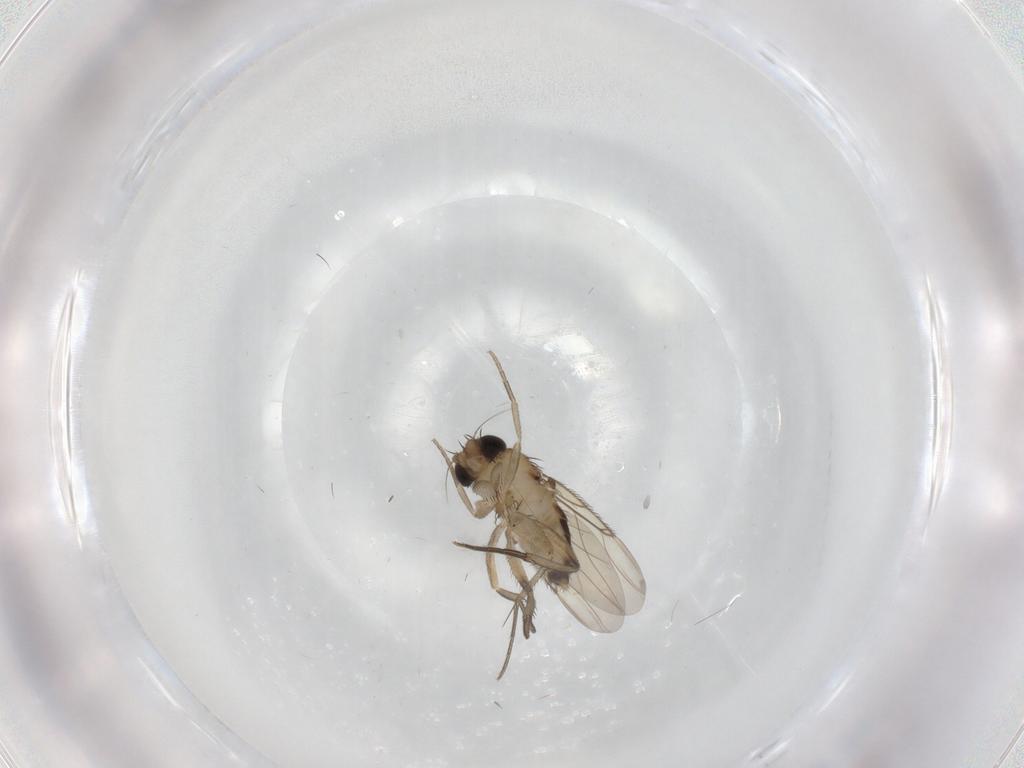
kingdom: Animalia
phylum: Arthropoda
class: Insecta
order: Diptera
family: Phoridae
